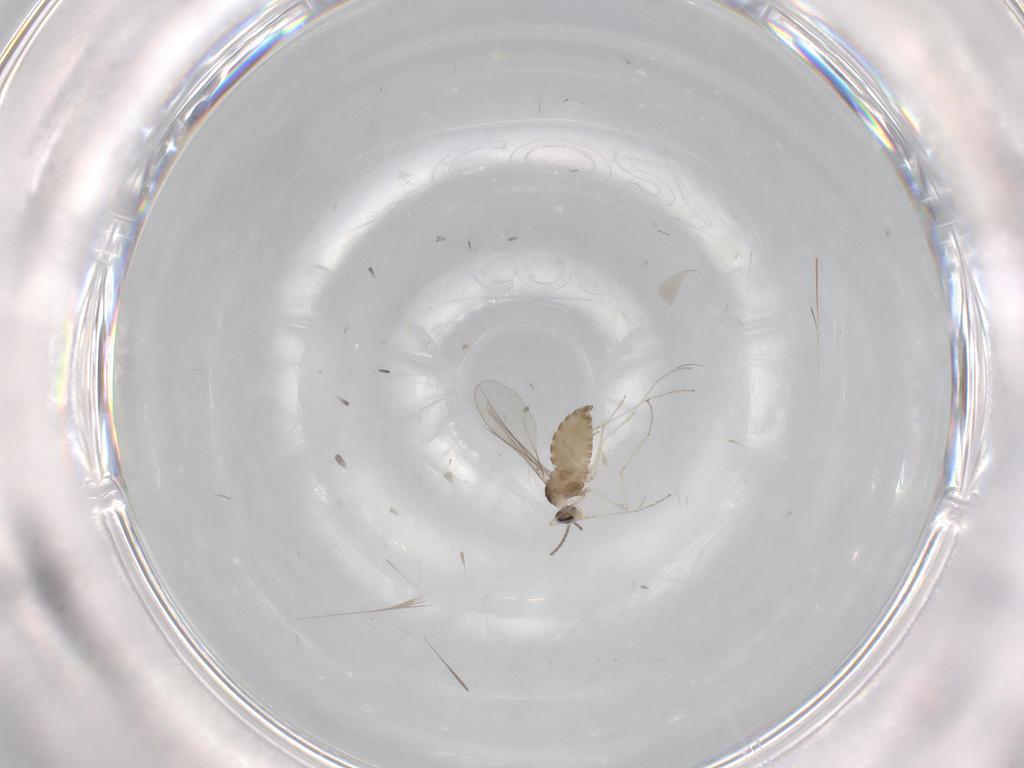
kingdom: Animalia
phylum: Arthropoda
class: Insecta
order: Diptera
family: Cecidomyiidae
